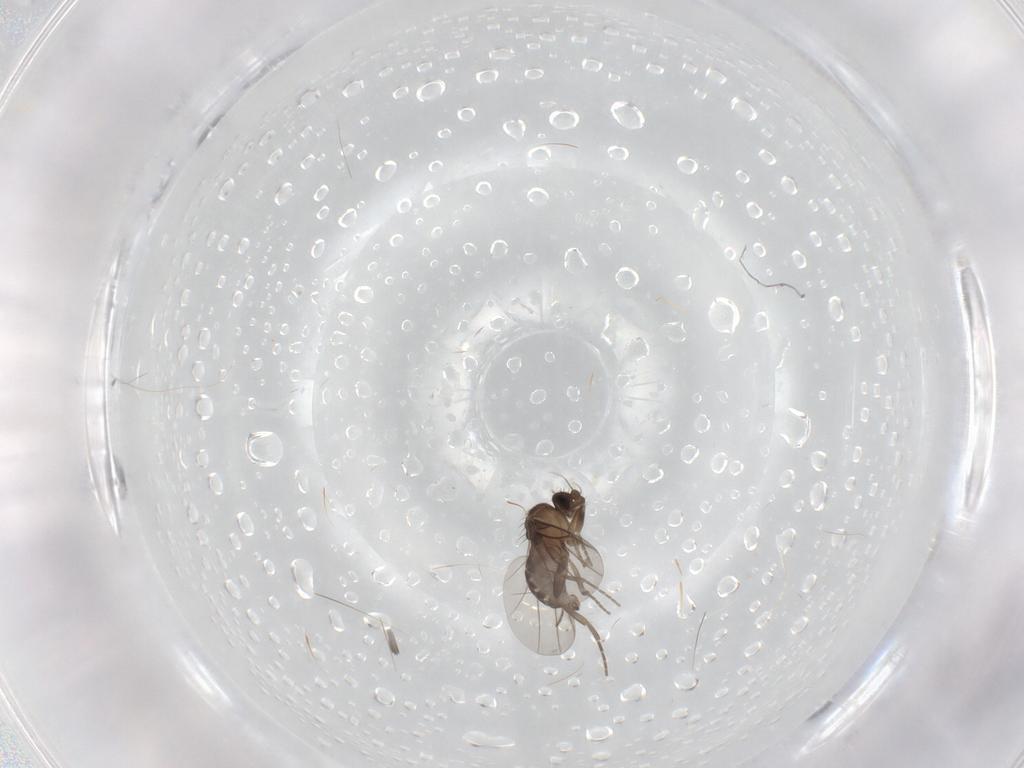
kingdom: Animalia
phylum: Arthropoda
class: Insecta
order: Diptera
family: Phoridae
